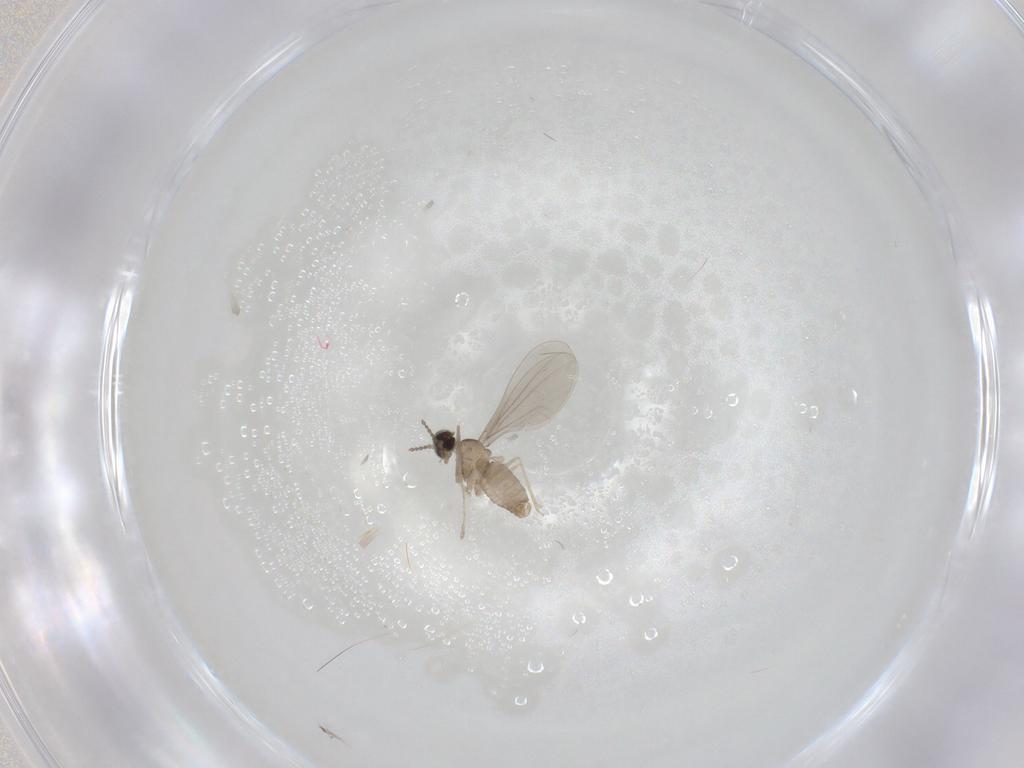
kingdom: Animalia
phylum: Arthropoda
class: Insecta
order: Diptera
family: Cecidomyiidae
